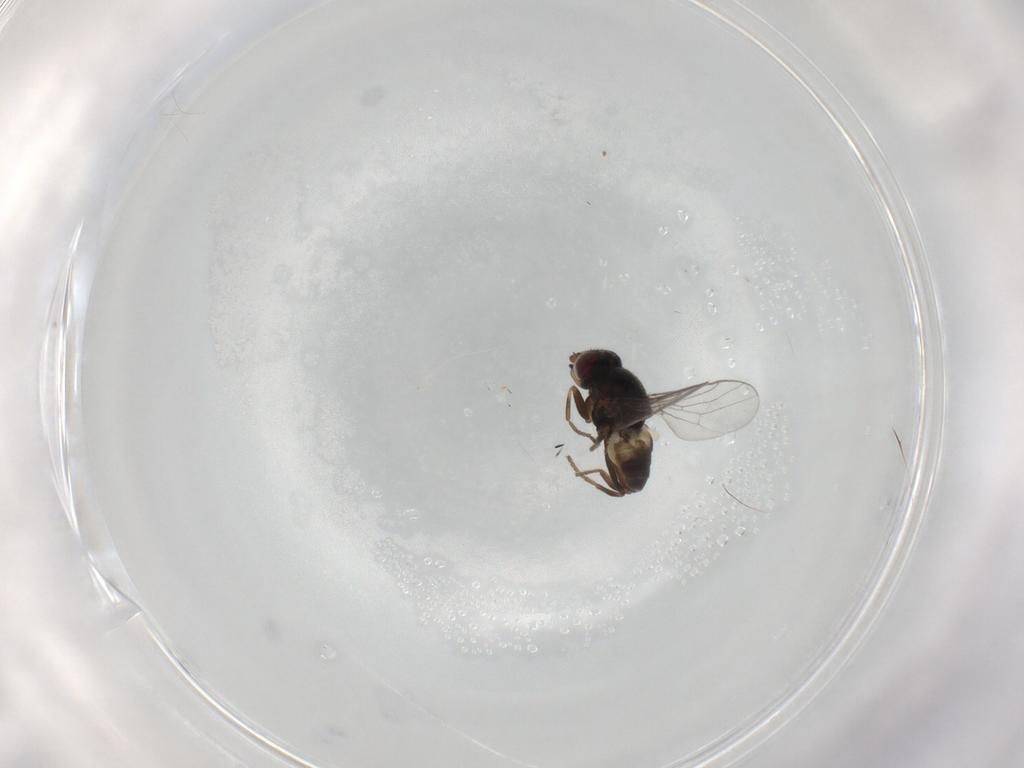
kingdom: Animalia
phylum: Arthropoda
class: Insecta
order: Diptera
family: Chloropidae
